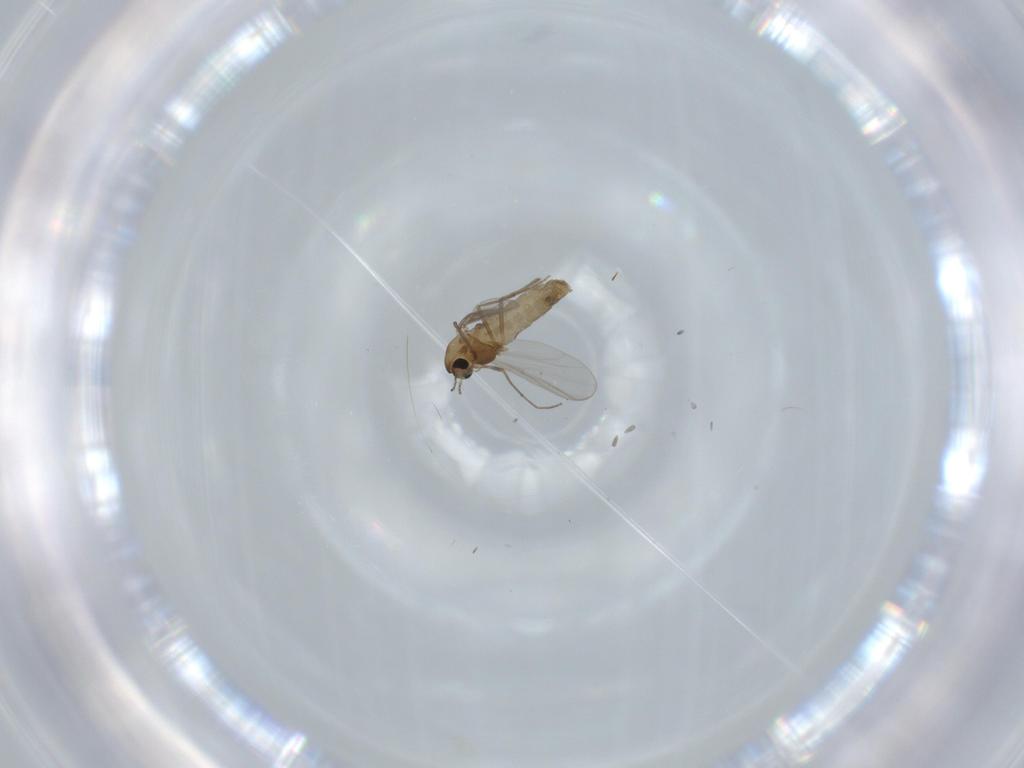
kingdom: Animalia
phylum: Arthropoda
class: Insecta
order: Diptera
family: Chironomidae
